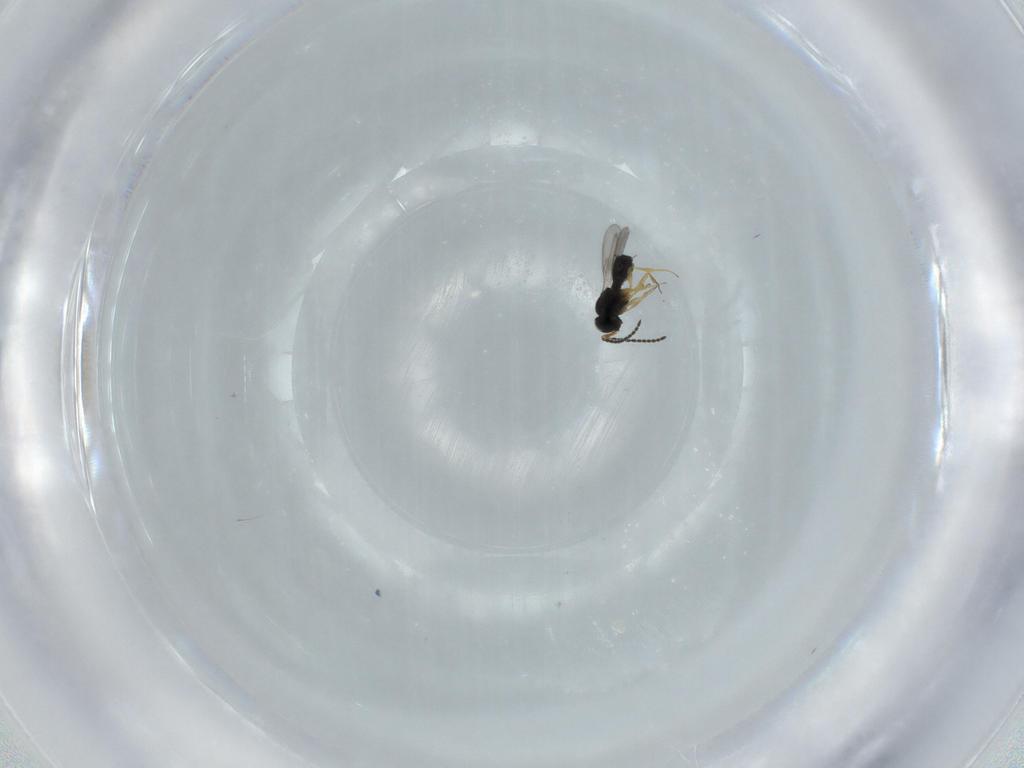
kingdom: Animalia
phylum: Arthropoda
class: Insecta
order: Hymenoptera
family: Scelionidae
